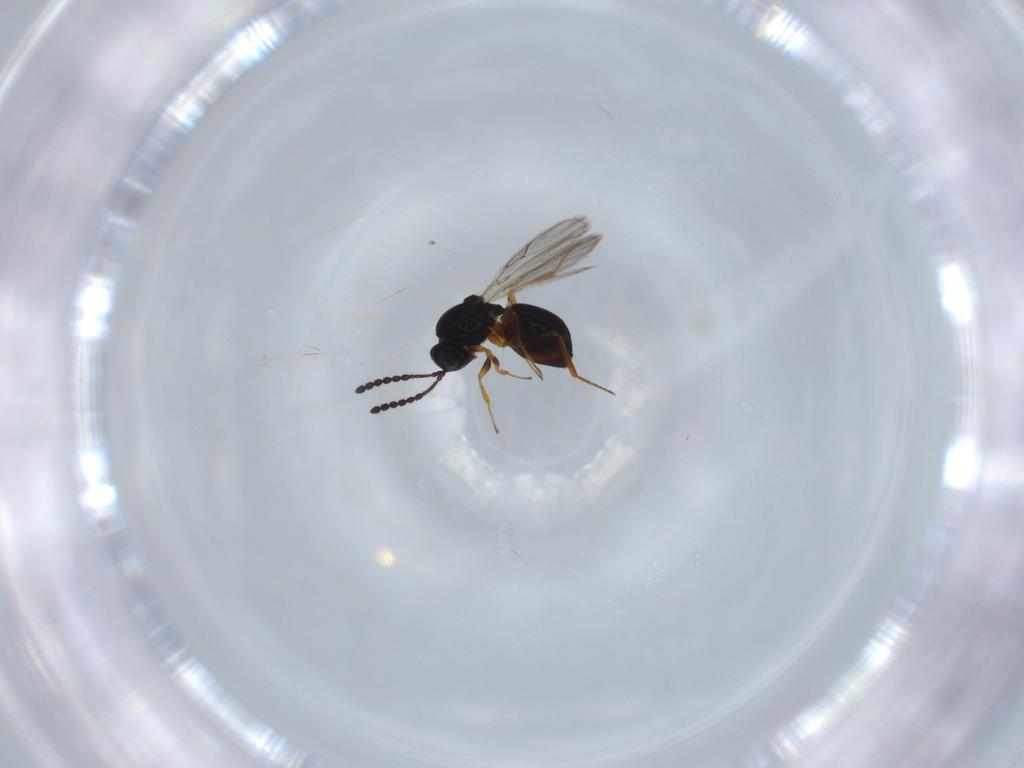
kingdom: Animalia
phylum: Arthropoda
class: Insecta
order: Hymenoptera
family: Figitidae
